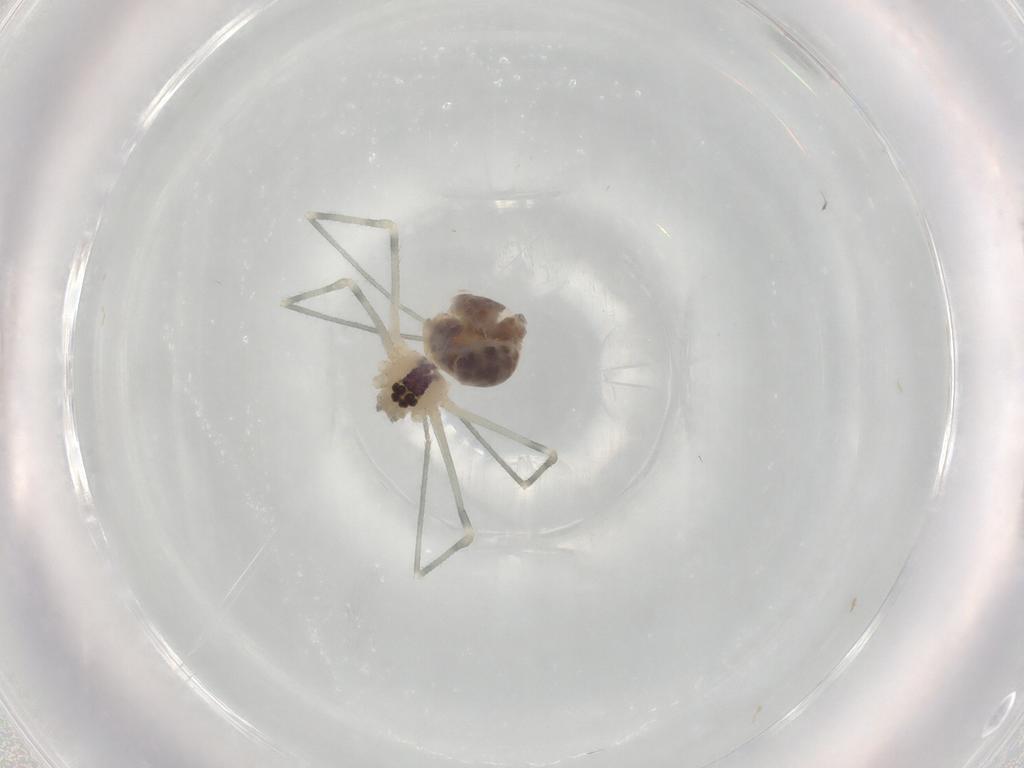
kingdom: Animalia
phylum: Arthropoda
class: Arachnida
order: Araneae
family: Pholcidae
